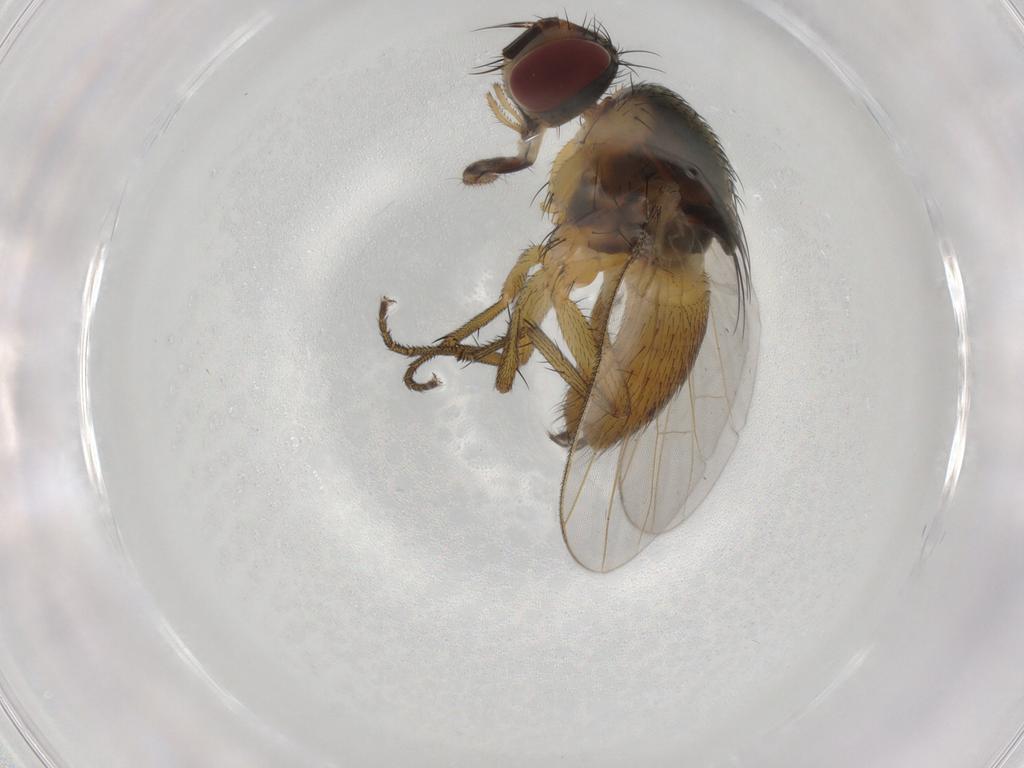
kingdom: Animalia
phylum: Arthropoda
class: Insecta
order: Diptera
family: Muscidae
